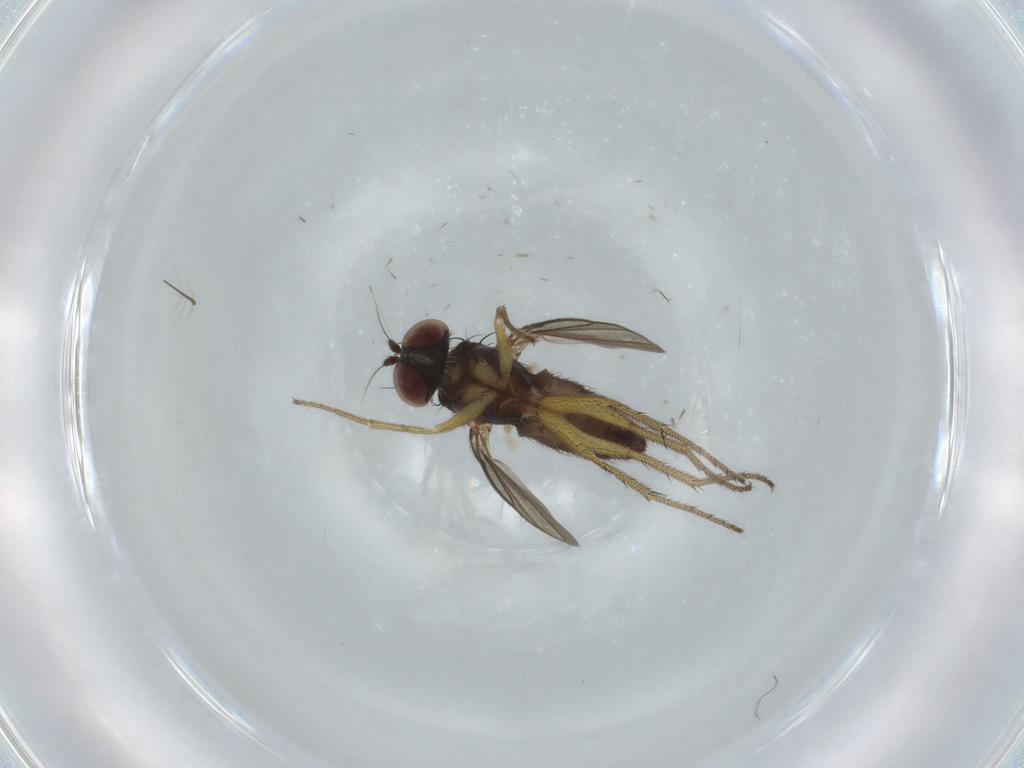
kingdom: Animalia
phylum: Arthropoda
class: Insecta
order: Diptera
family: Dolichopodidae
